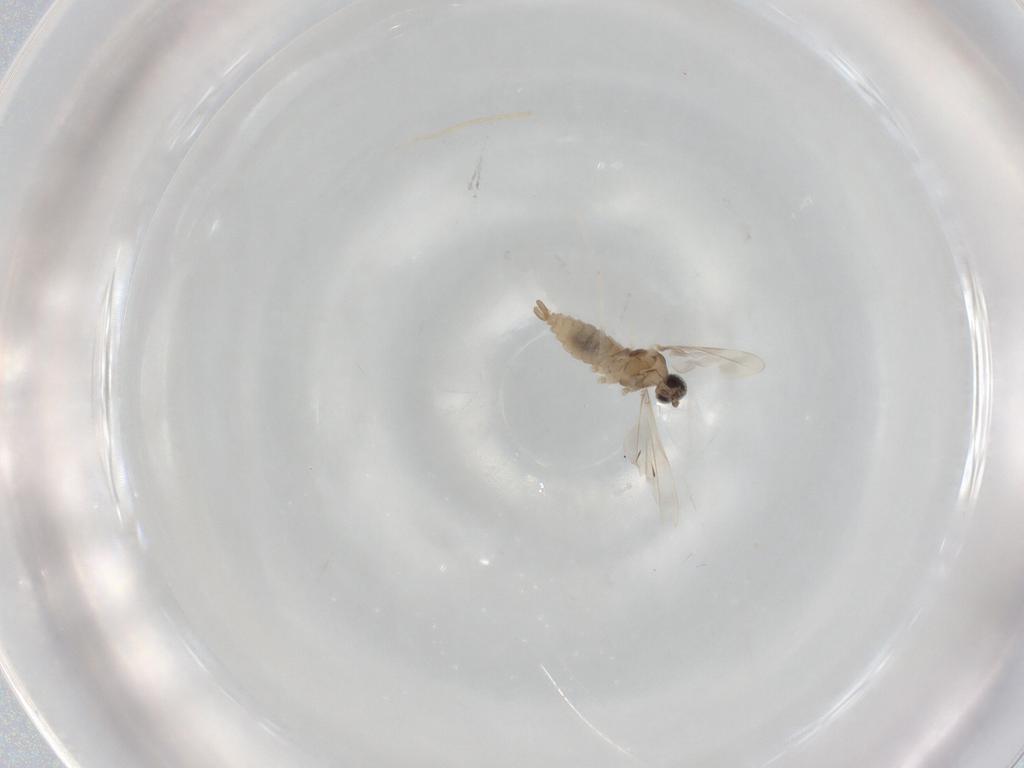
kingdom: Animalia
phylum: Arthropoda
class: Insecta
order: Diptera
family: Cecidomyiidae
